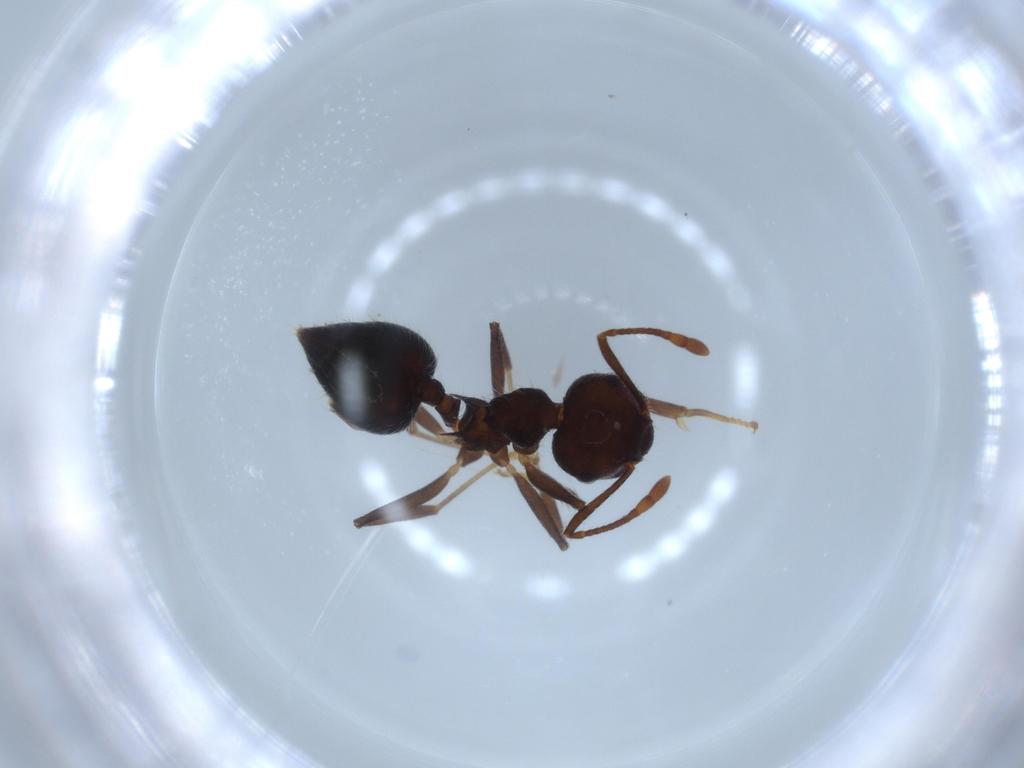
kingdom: Animalia
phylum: Arthropoda
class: Insecta
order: Hymenoptera
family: Formicidae
